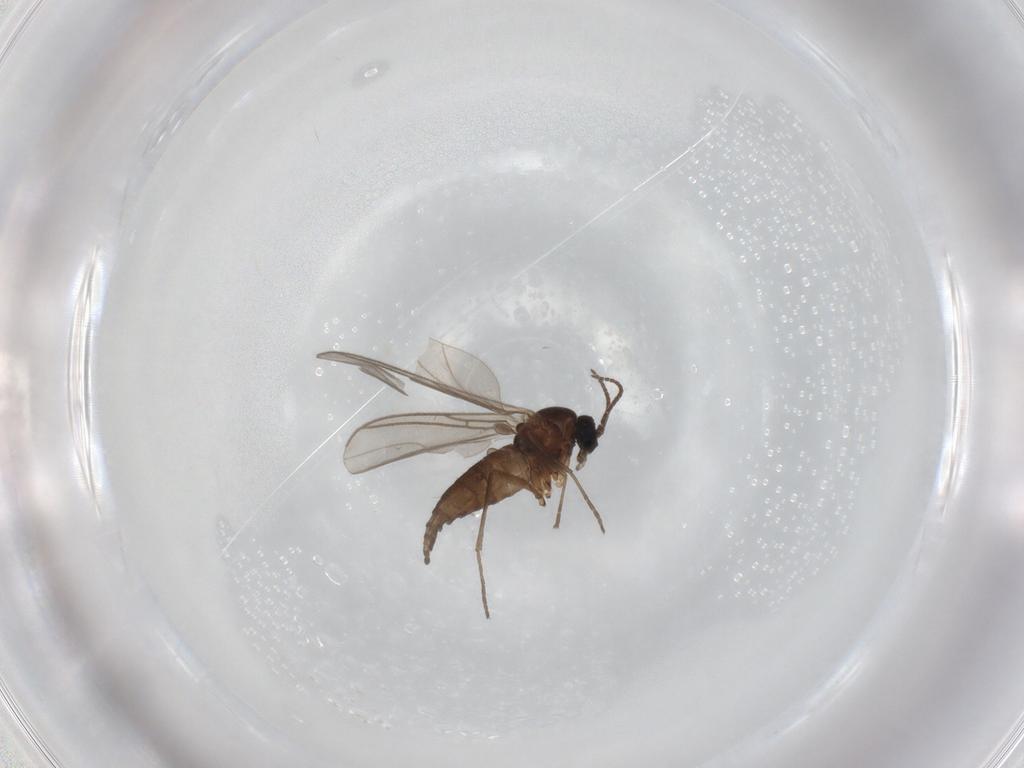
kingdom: Animalia
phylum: Arthropoda
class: Insecta
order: Diptera
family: Sciaridae
